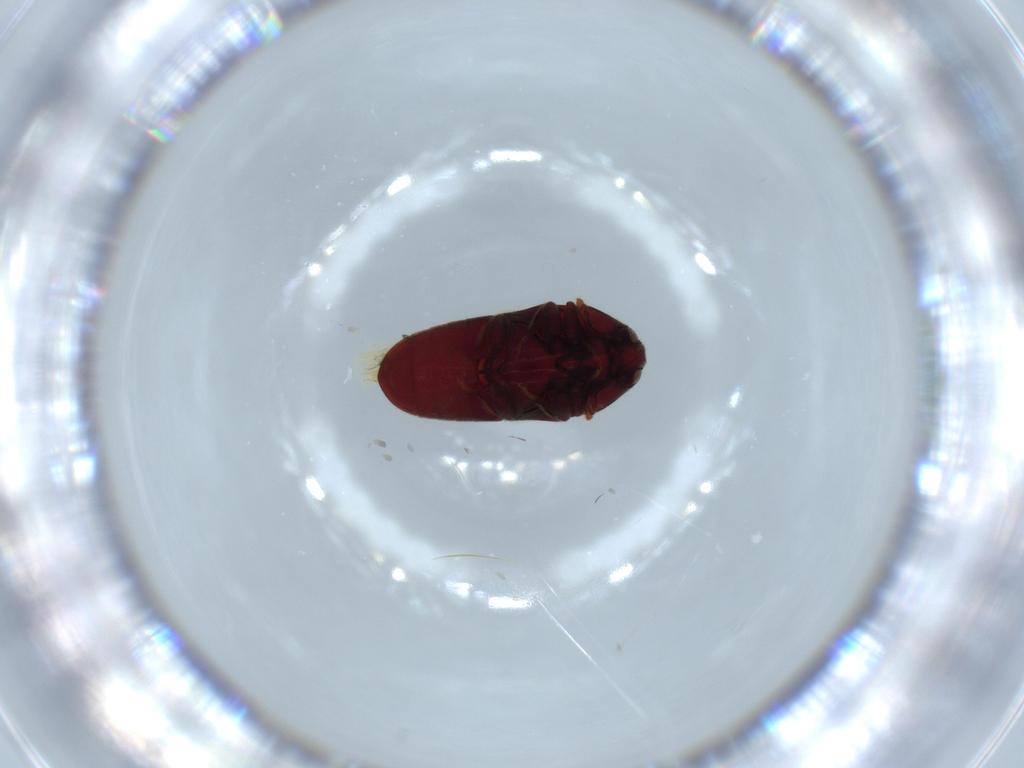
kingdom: Animalia
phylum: Arthropoda
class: Insecta
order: Coleoptera
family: Throscidae
